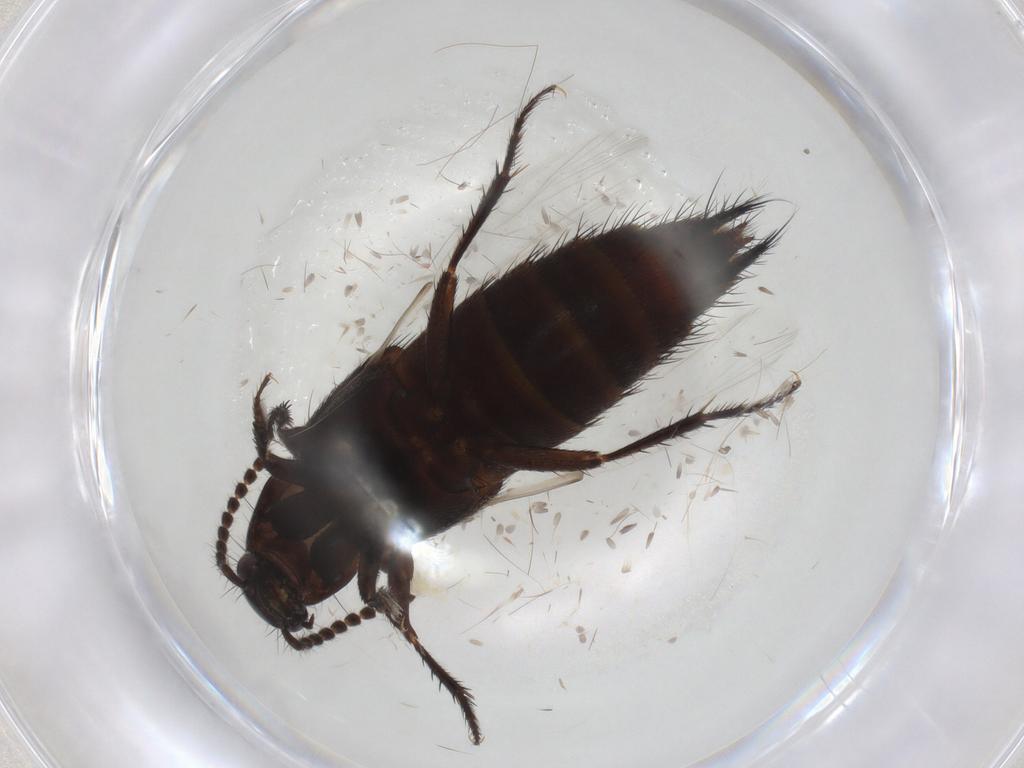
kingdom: Animalia
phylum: Arthropoda
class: Insecta
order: Coleoptera
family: Staphylinidae
